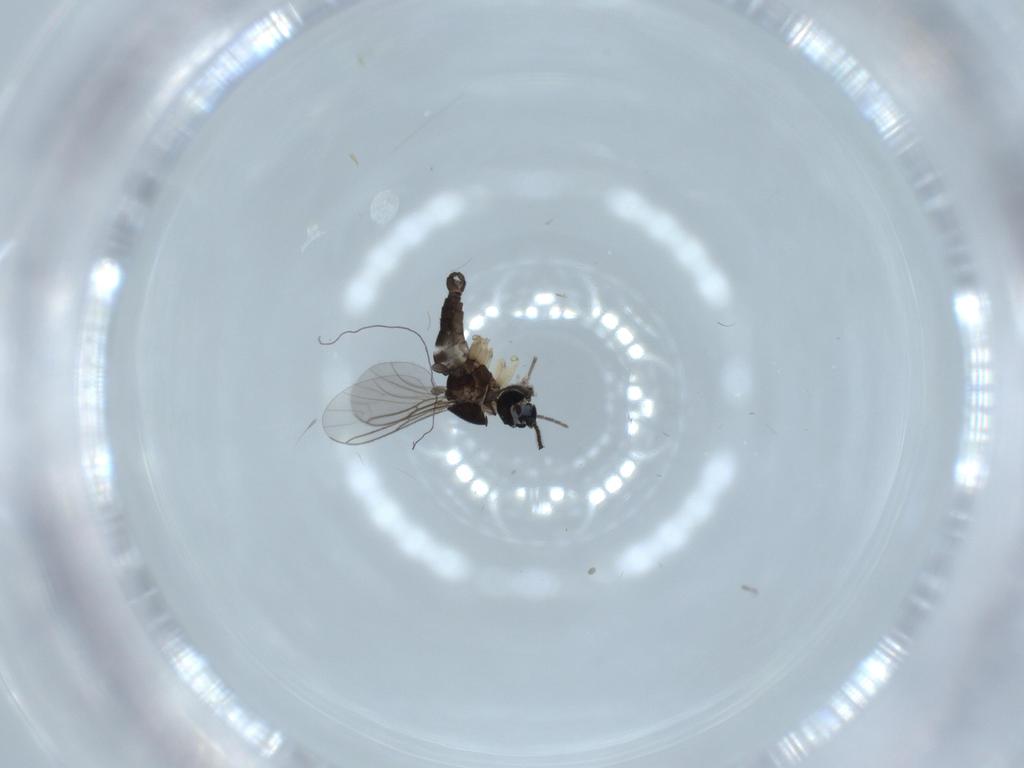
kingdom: Animalia
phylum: Arthropoda
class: Insecta
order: Diptera
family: Sciaridae
